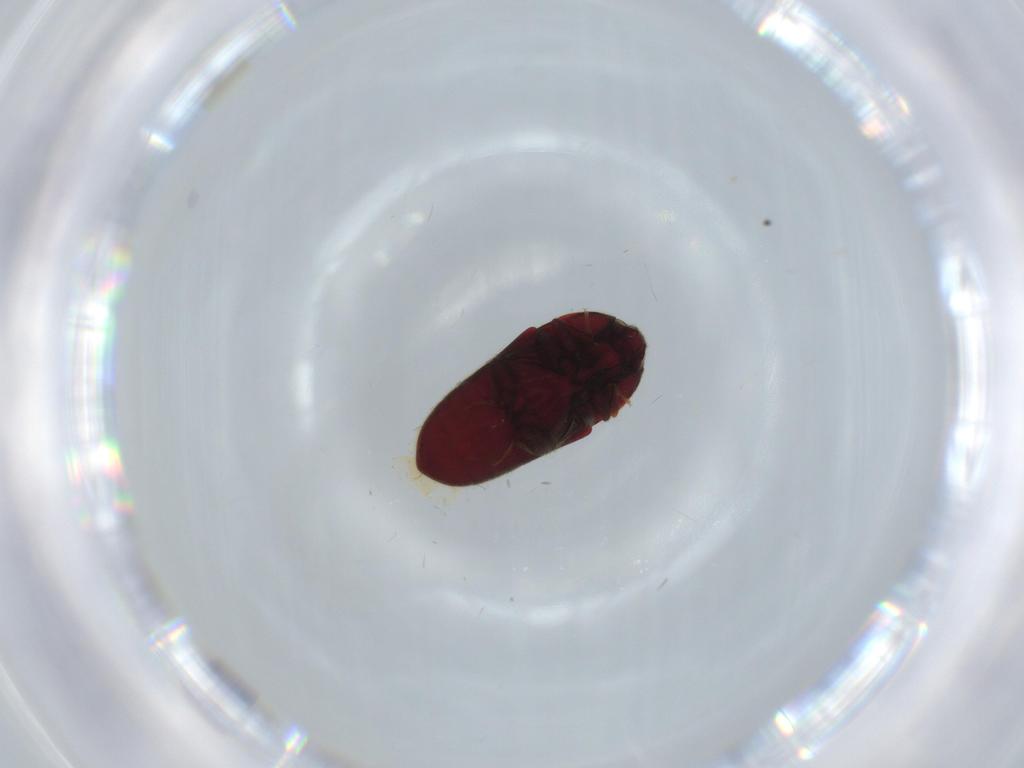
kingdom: Animalia
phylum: Arthropoda
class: Insecta
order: Coleoptera
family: Throscidae
